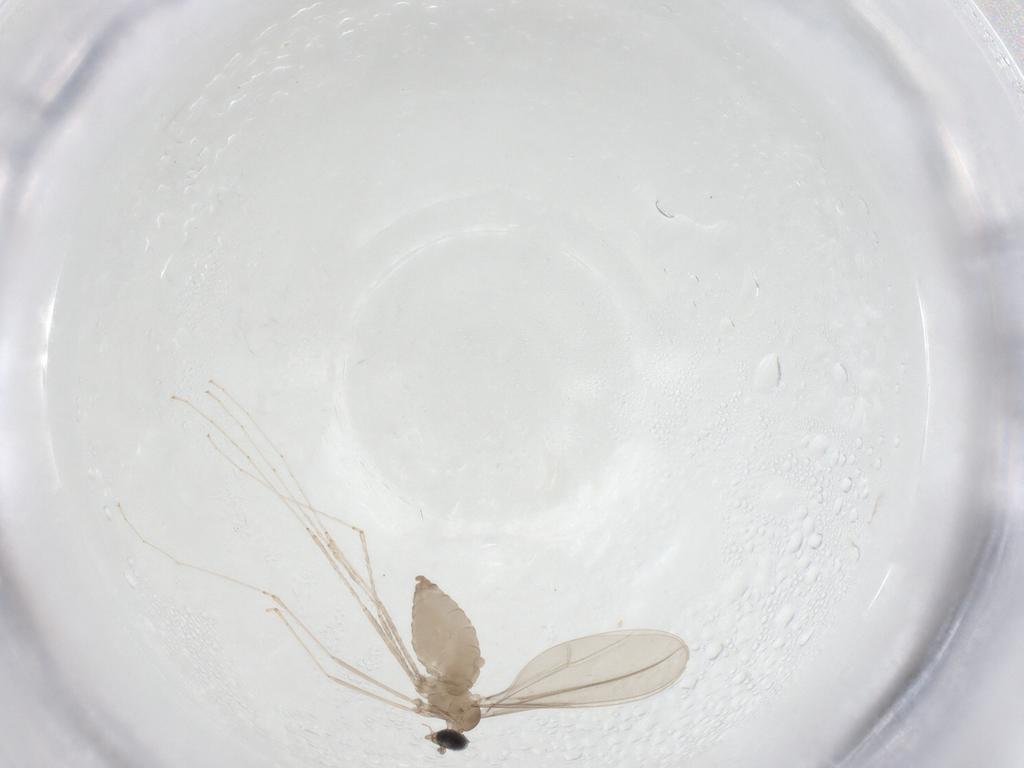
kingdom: Animalia
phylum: Arthropoda
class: Insecta
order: Diptera
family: Cecidomyiidae
